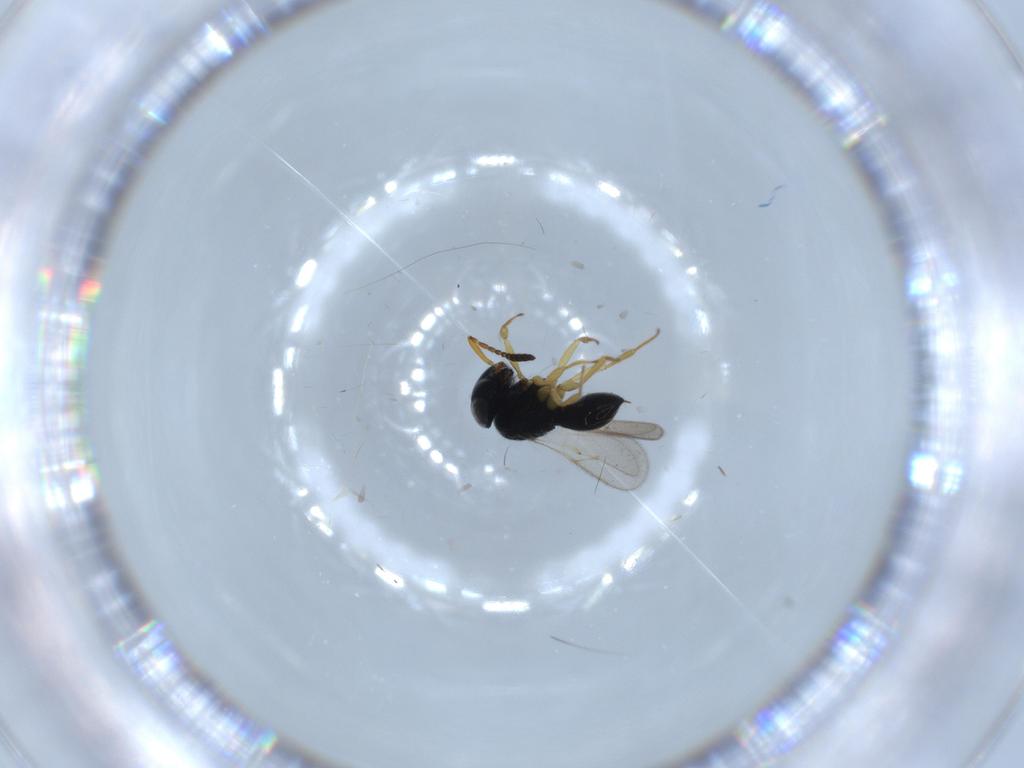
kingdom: Animalia
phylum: Arthropoda
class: Insecta
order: Hymenoptera
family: Scelionidae
